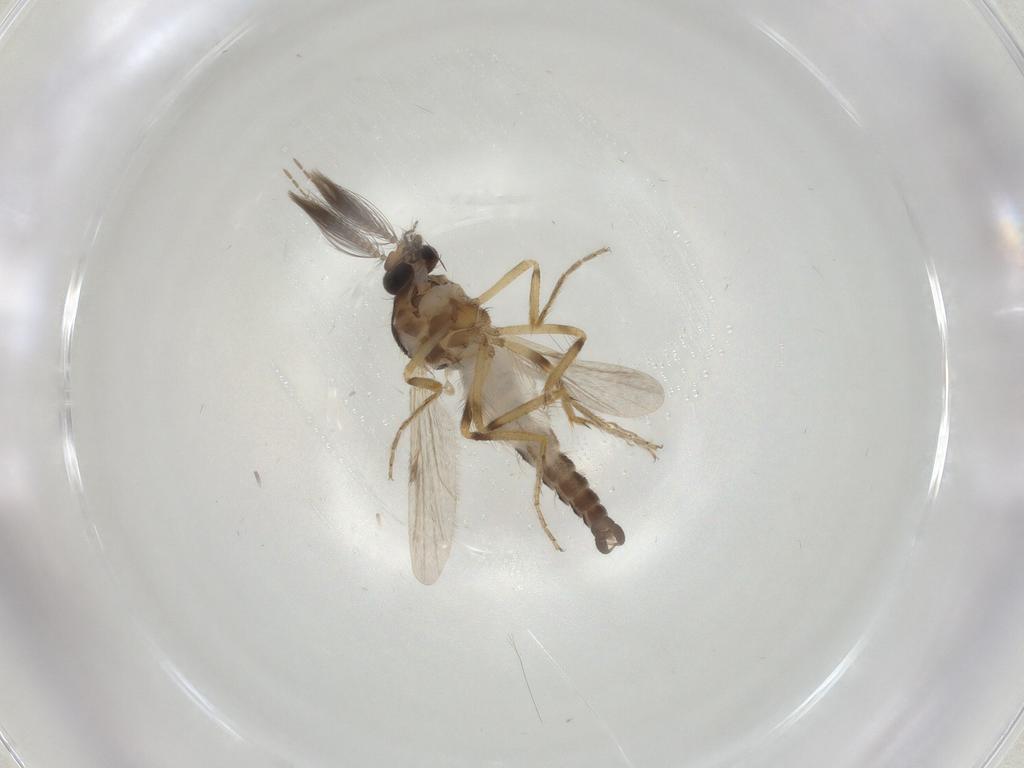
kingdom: Animalia
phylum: Arthropoda
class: Insecta
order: Diptera
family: Ceratopogonidae
